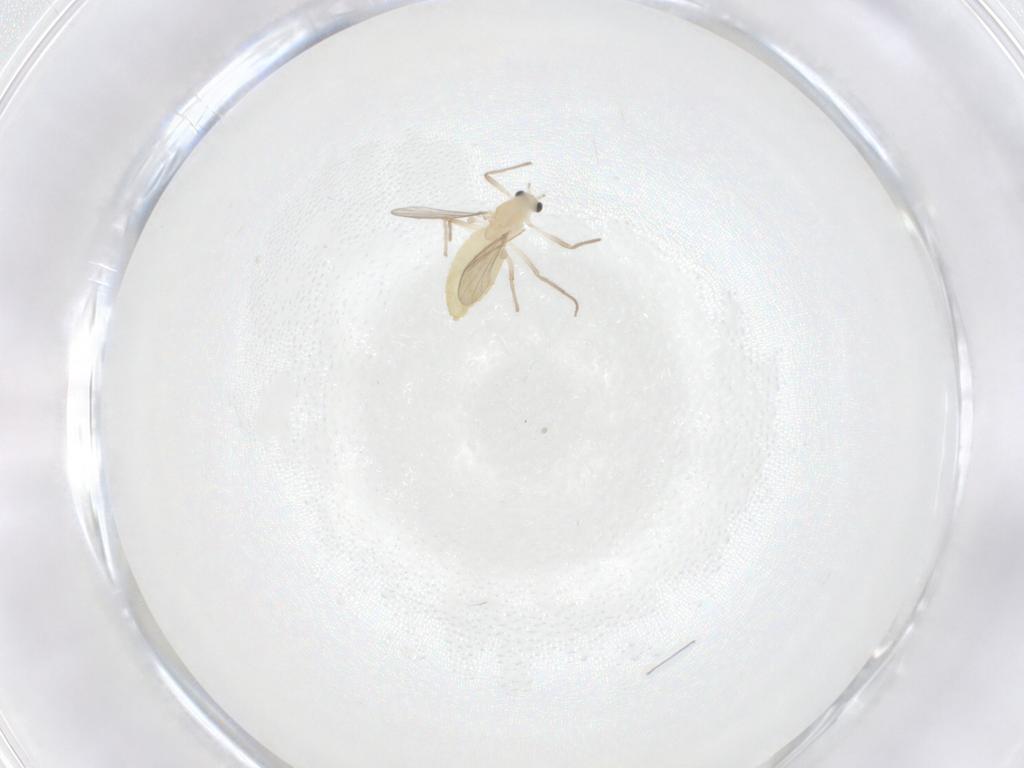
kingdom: Animalia
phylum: Arthropoda
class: Insecta
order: Diptera
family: Chironomidae
